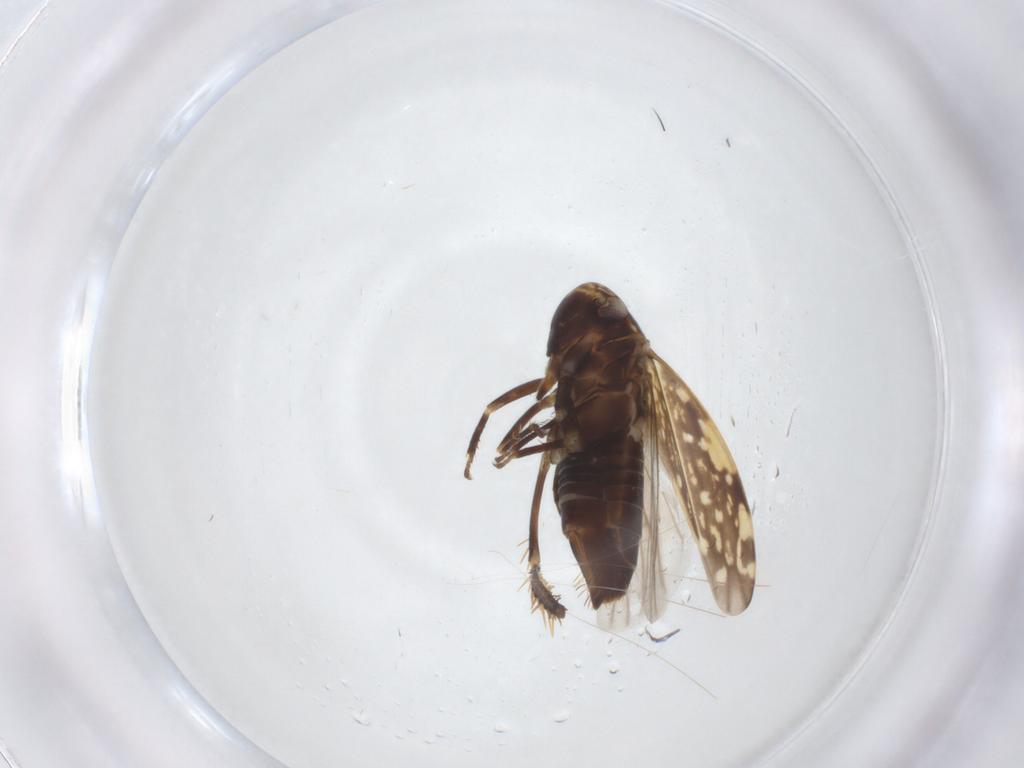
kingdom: Animalia
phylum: Arthropoda
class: Insecta
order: Hemiptera
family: Cicadellidae
